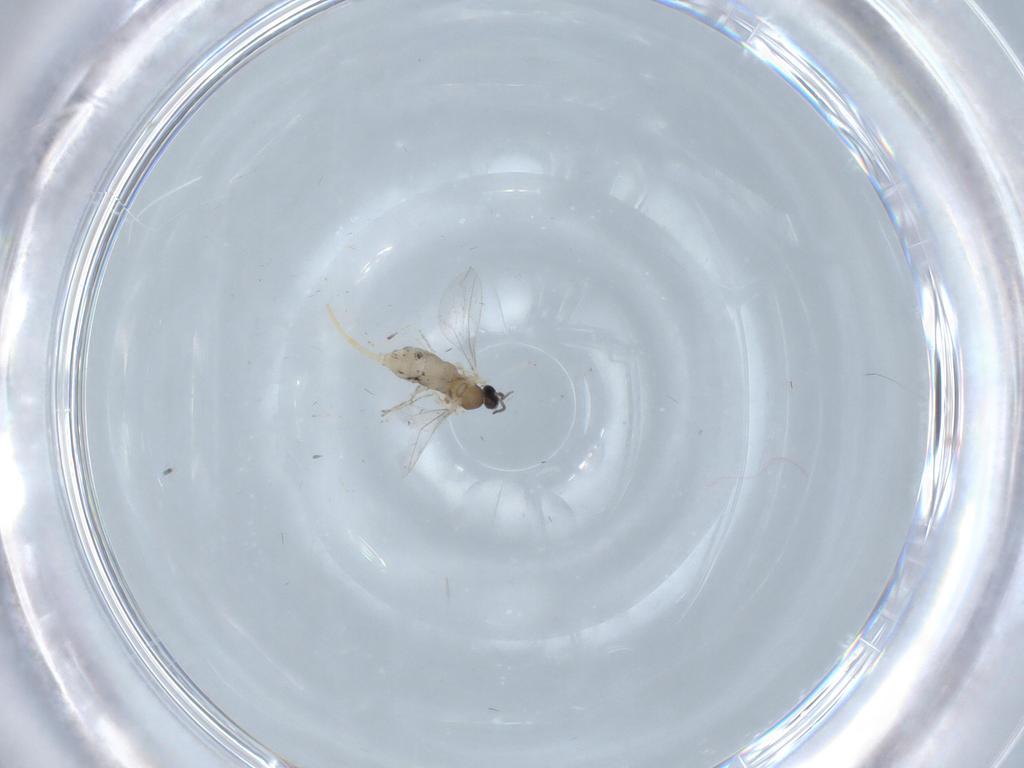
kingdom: Animalia
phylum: Arthropoda
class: Insecta
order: Diptera
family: Cecidomyiidae
